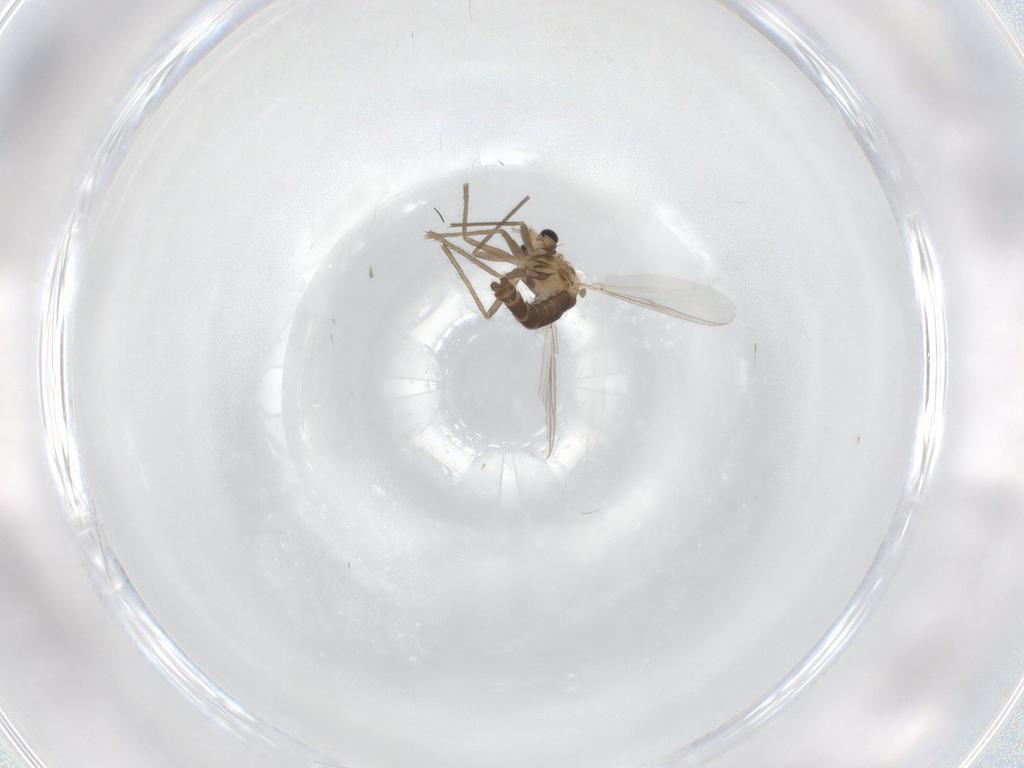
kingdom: Animalia
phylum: Arthropoda
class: Insecta
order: Diptera
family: Chironomidae
